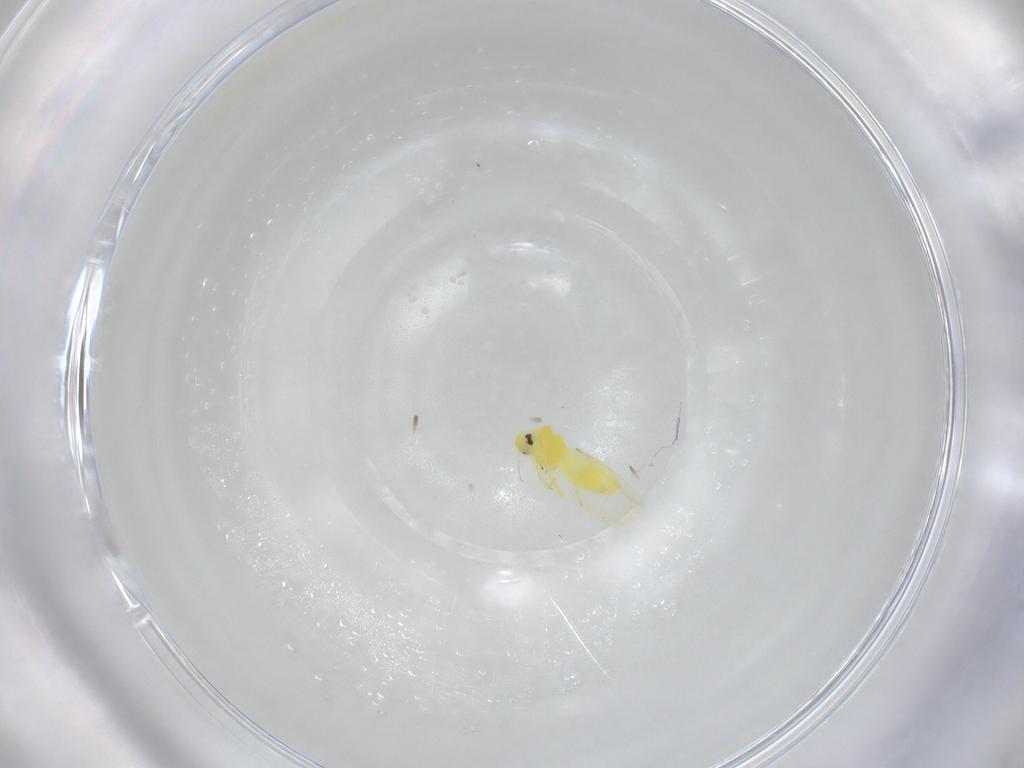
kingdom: Animalia
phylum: Arthropoda
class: Insecta
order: Hemiptera
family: Aleyrodidae
